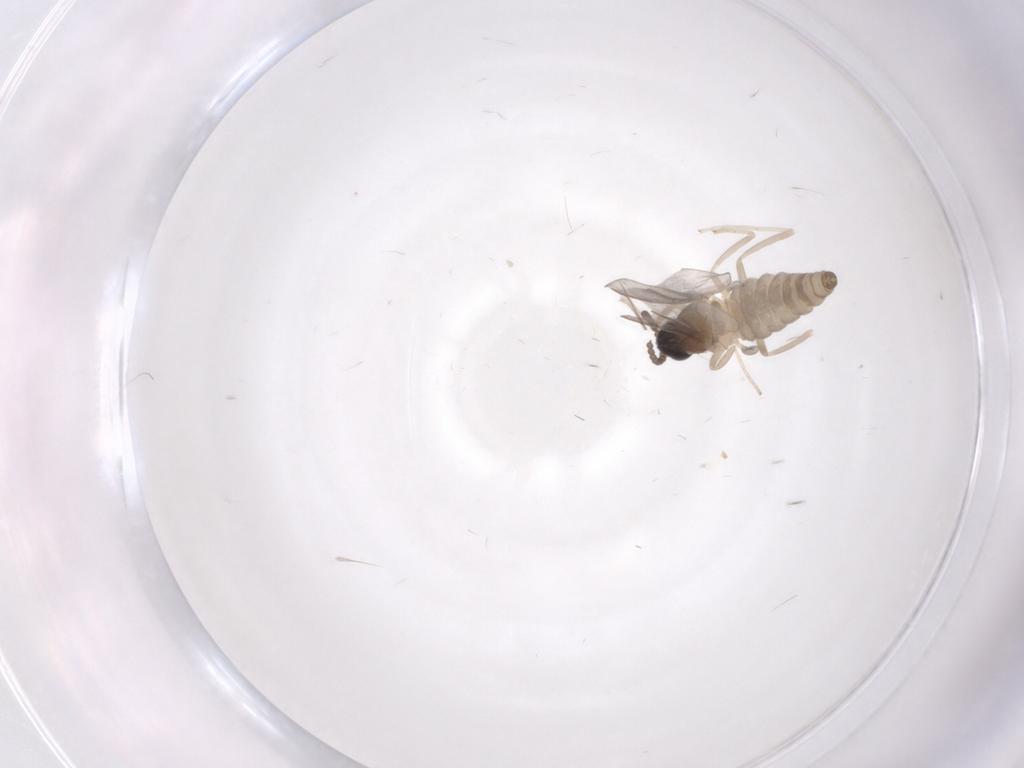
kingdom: Animalia
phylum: Arthropoda
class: Insecta
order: Diptera
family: Cecidomyiidae
